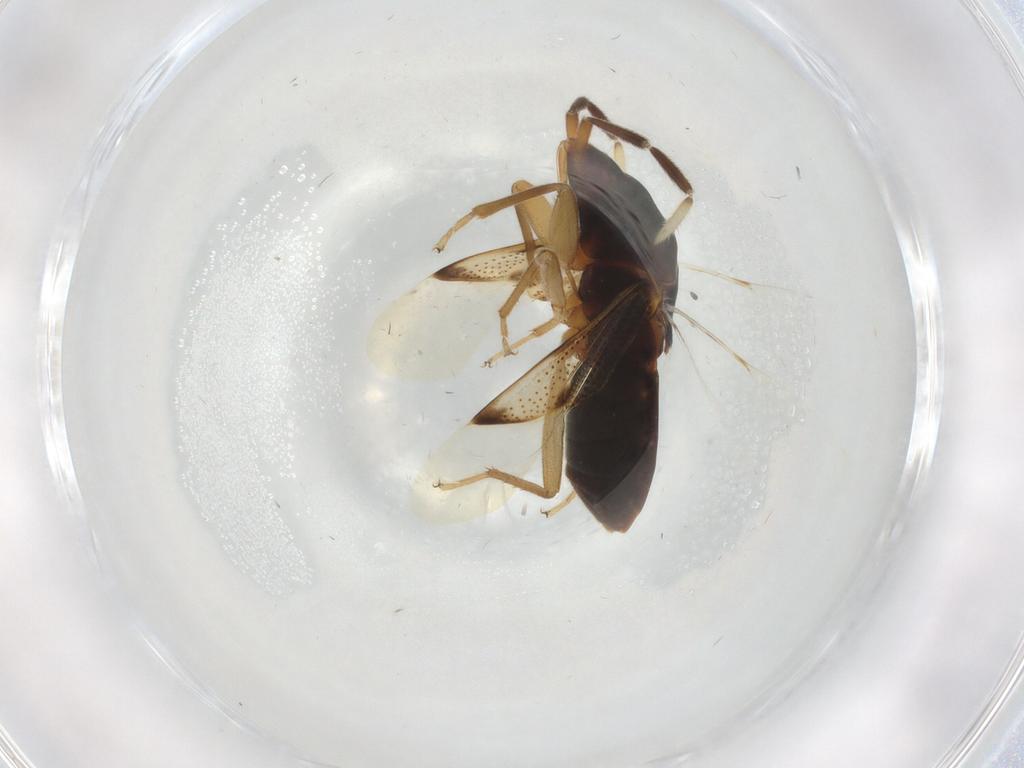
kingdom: Animalia
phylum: Arthropoda
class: Insecta
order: Hemiptera
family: Rhyparochromidae
